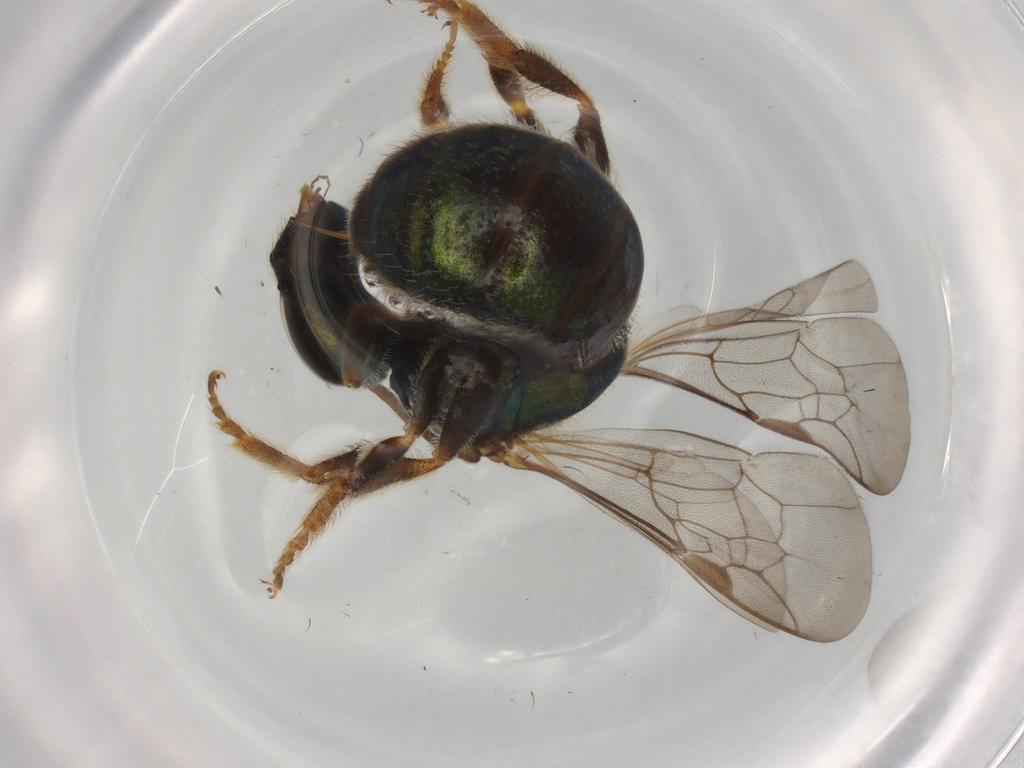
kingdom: Animalia
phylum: Arthropoda
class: Insecta
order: Hymenoptera
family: Halictidae
